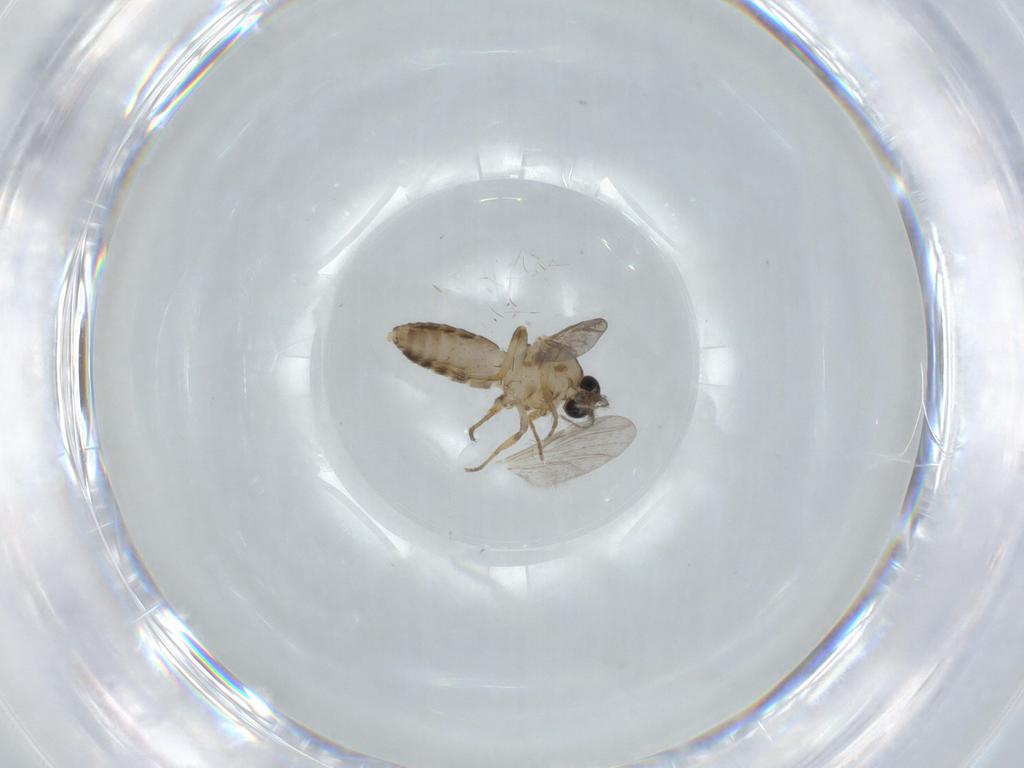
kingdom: Animalia
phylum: Arthropoda
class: Insecta
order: Diptera
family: Ceratopogonidae
